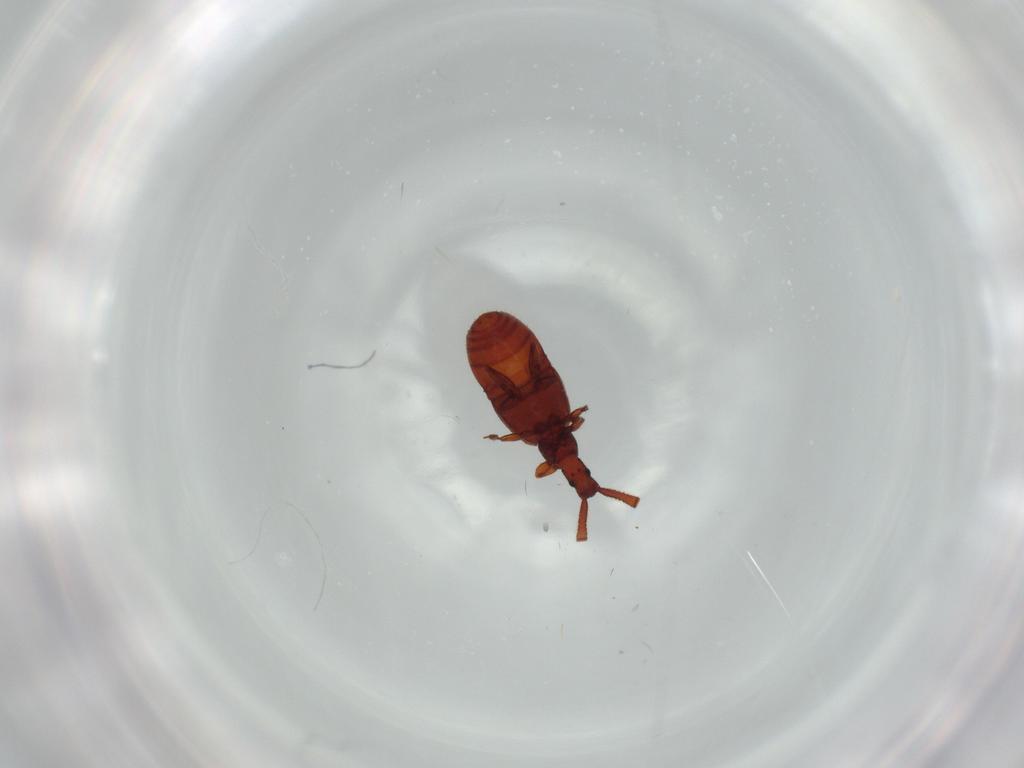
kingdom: Animalia
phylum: Arthropoda
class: Insecta
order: Coleoptera
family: Staphylinidae
